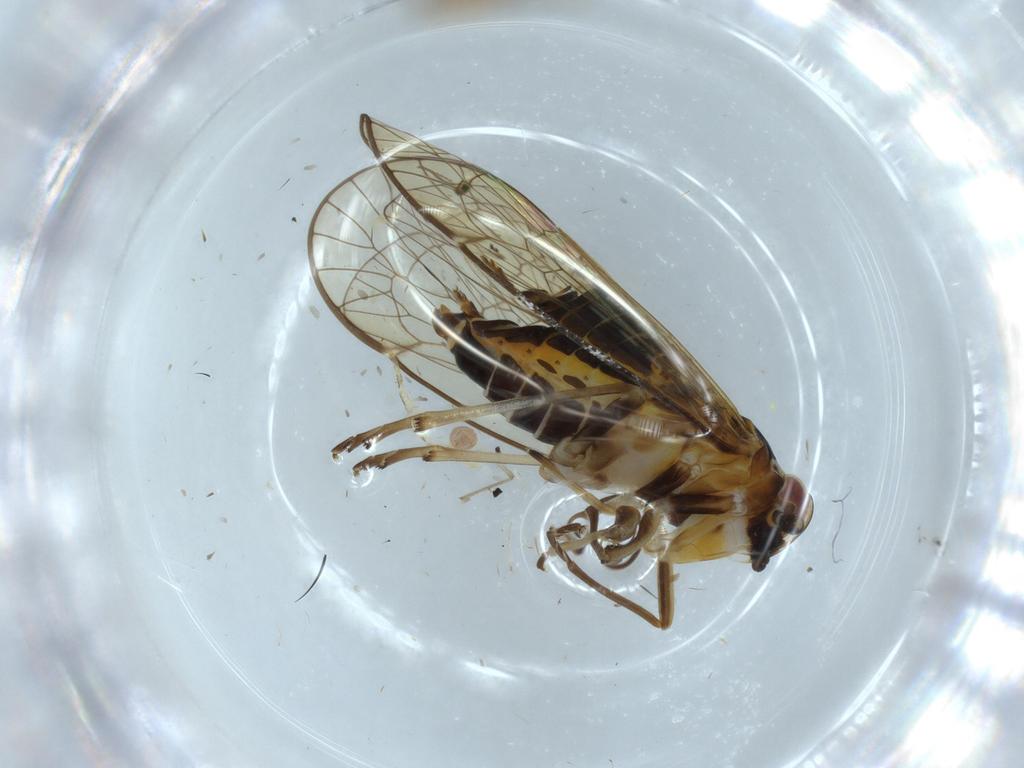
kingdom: Animalia
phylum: Arthropoda
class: Insecta
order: Hemiptera
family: Kinnaridae
